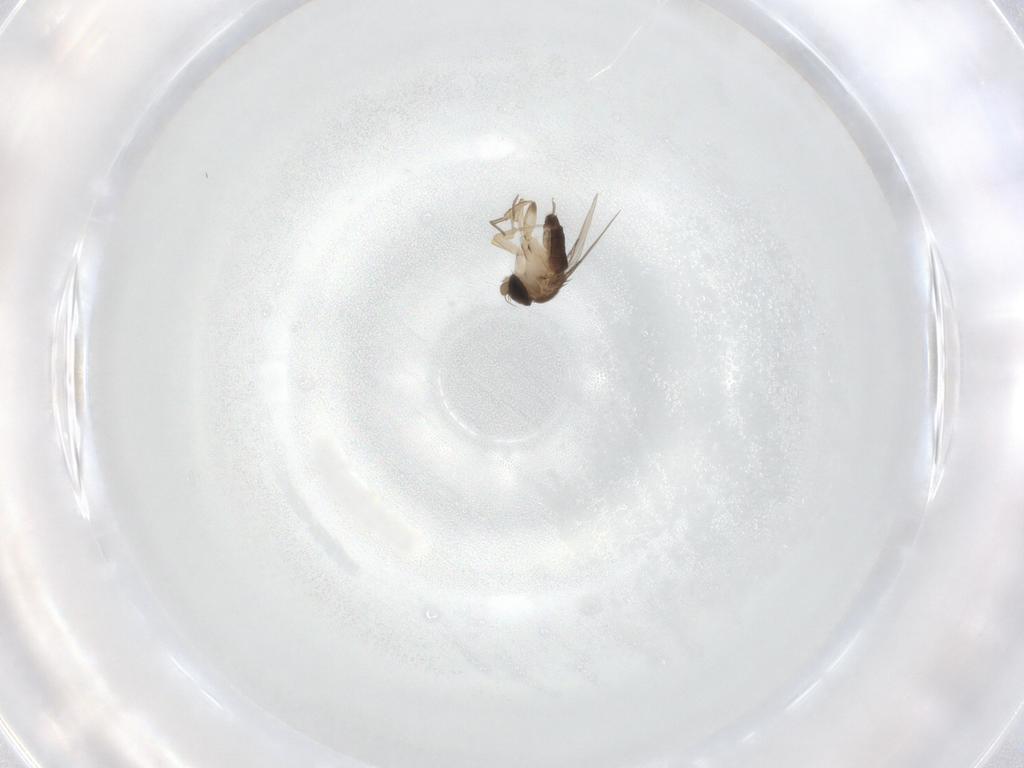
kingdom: Animalia
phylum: Arthropoda
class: Insecta
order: Diptera
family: Phoridae
